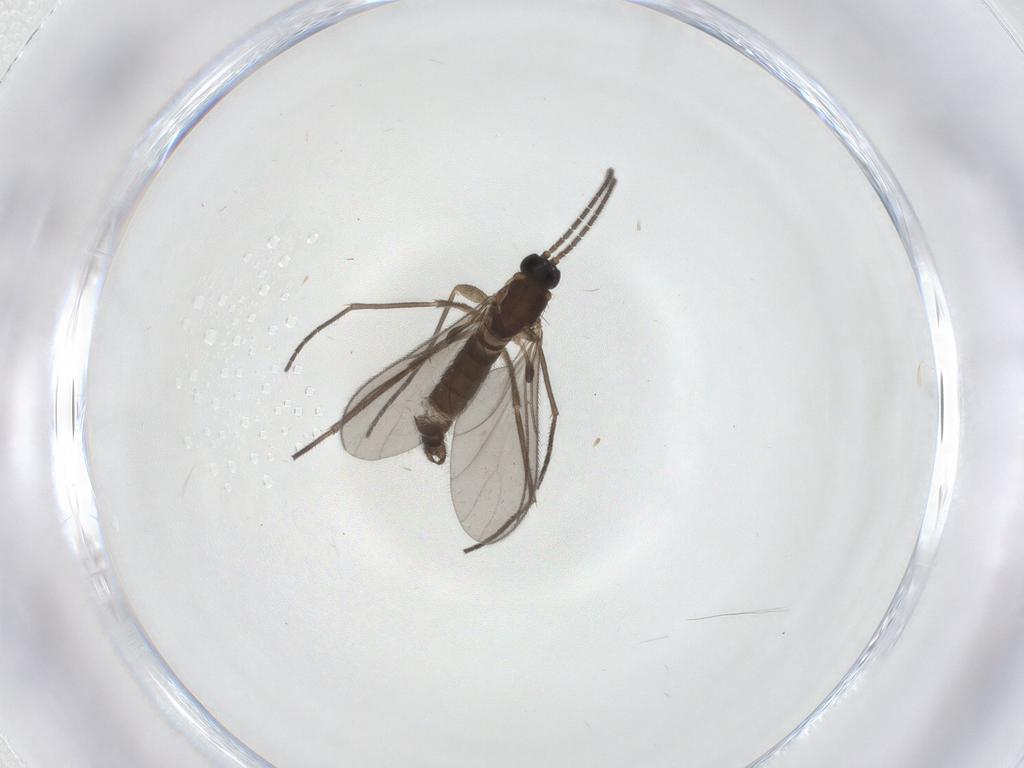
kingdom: Animalia
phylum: Arthropoda
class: Insecta
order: Diptera
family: Sciaridae
